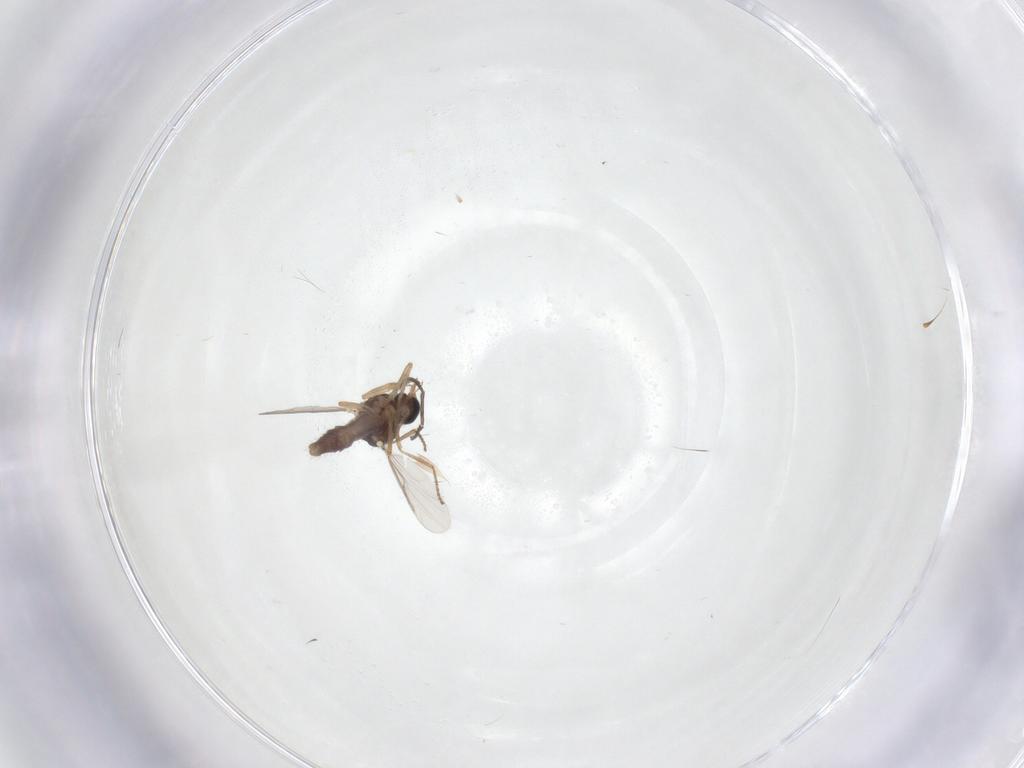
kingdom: Animalia
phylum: Arthropoda
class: Insecta
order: Diptera
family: Ceratopogonidae
